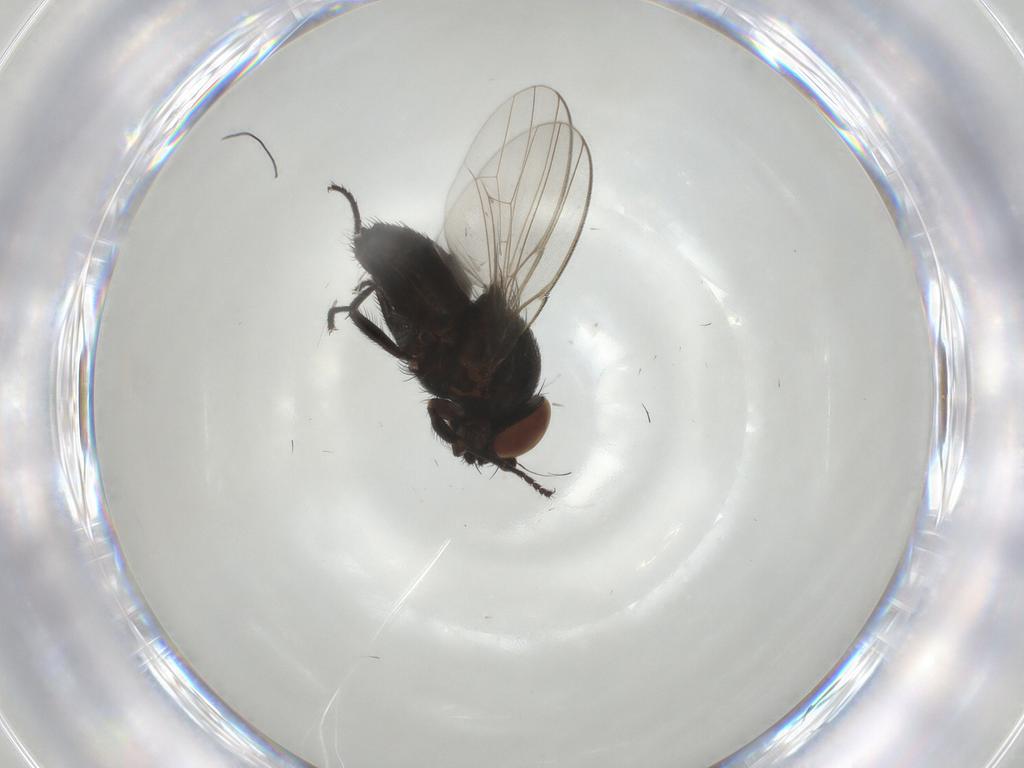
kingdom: Animalia
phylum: Arthropoda
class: Insecta
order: Diptera
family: Milichiidae
